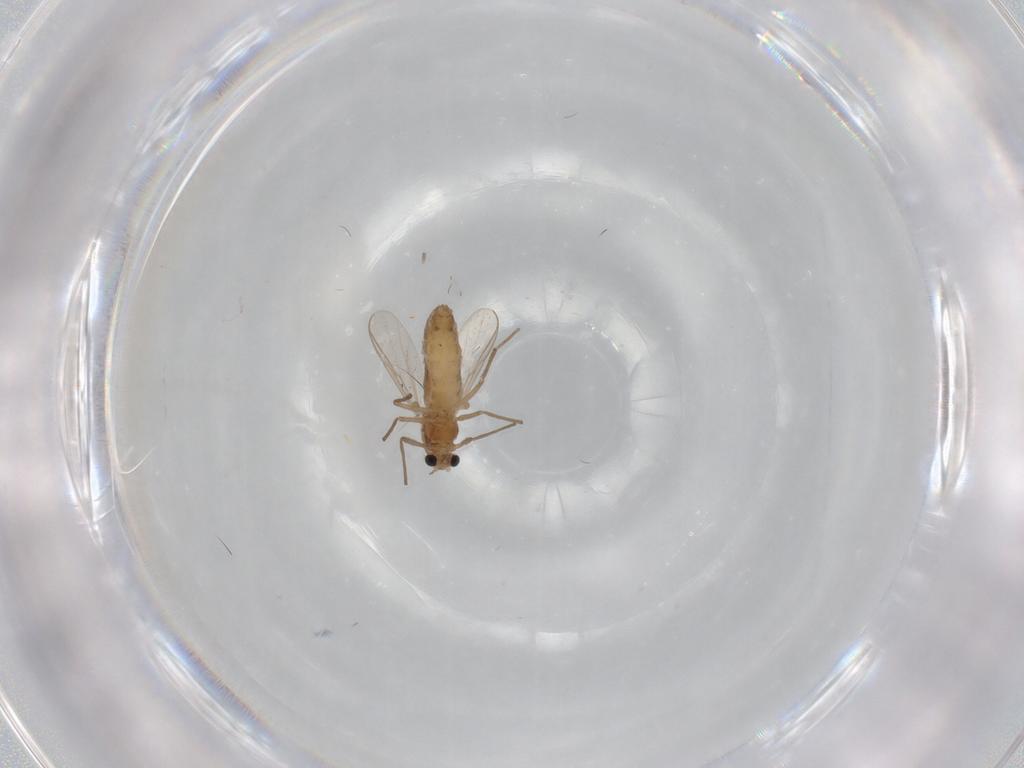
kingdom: Animalia
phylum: Arthropoda
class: Insecta
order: Diptera
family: Chironomidae
